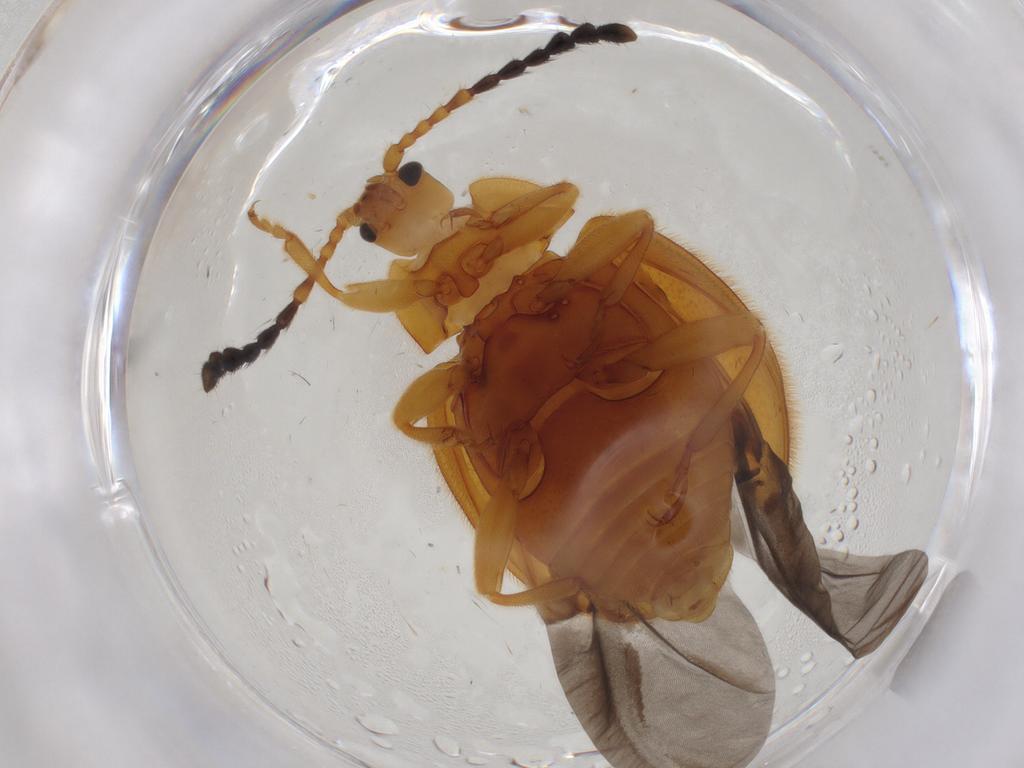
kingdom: Animalia
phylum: Arthropoda
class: Insecta
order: Coleoptera
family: Endomychidae
